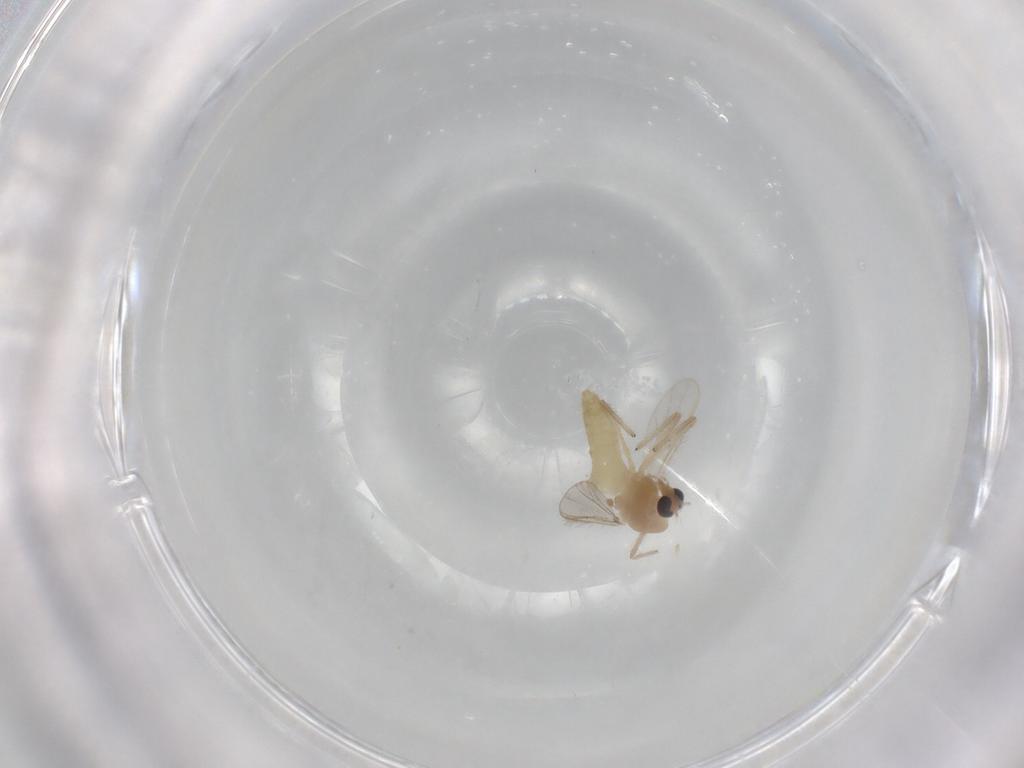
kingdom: Animalia
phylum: Arthropoda
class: Insecta
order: Diptera
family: Chironomidae
